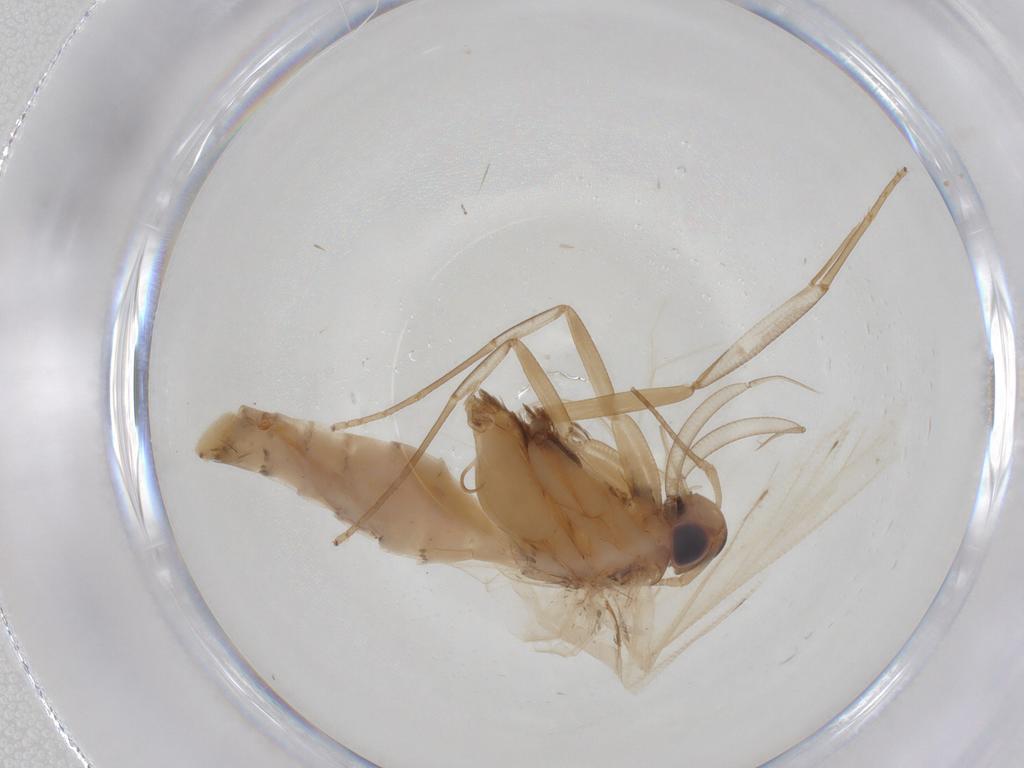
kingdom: Animalia
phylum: Arthropoda
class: Insecta
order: Lepidoptera
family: Gelechiidae
